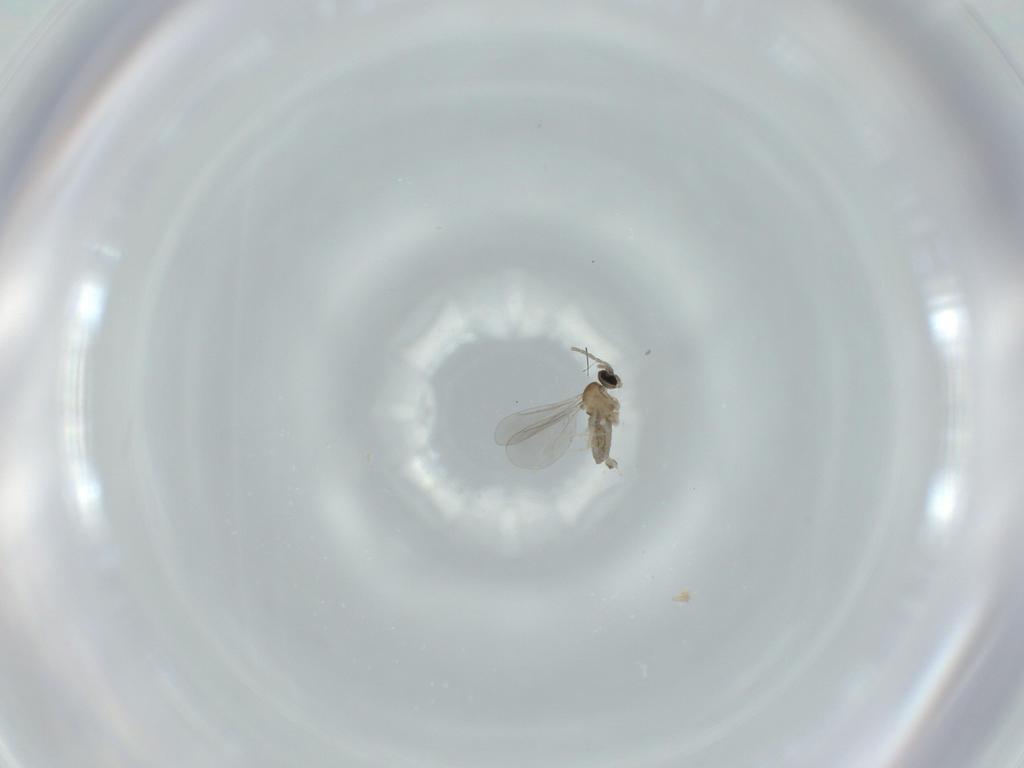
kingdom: Animalia
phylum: Arthropoda
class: Insecta
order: Diptera
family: Cecidomyiidae
